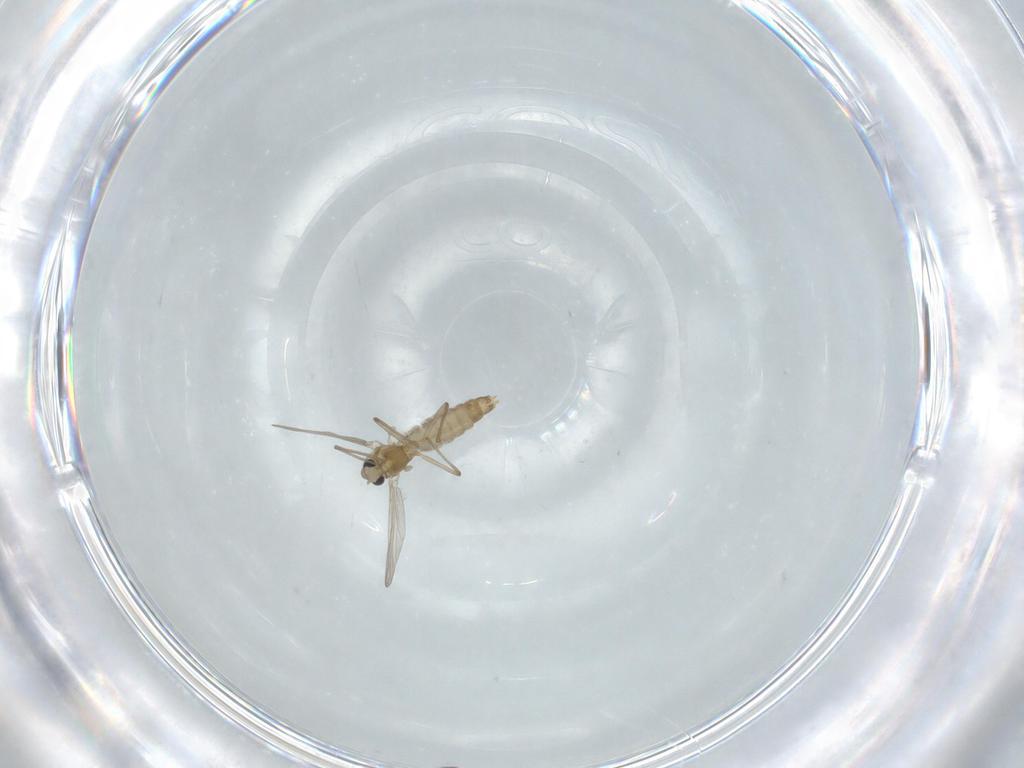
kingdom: Animalia
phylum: Arthropoda
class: Insecta
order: Diptera
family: Chironomidae
